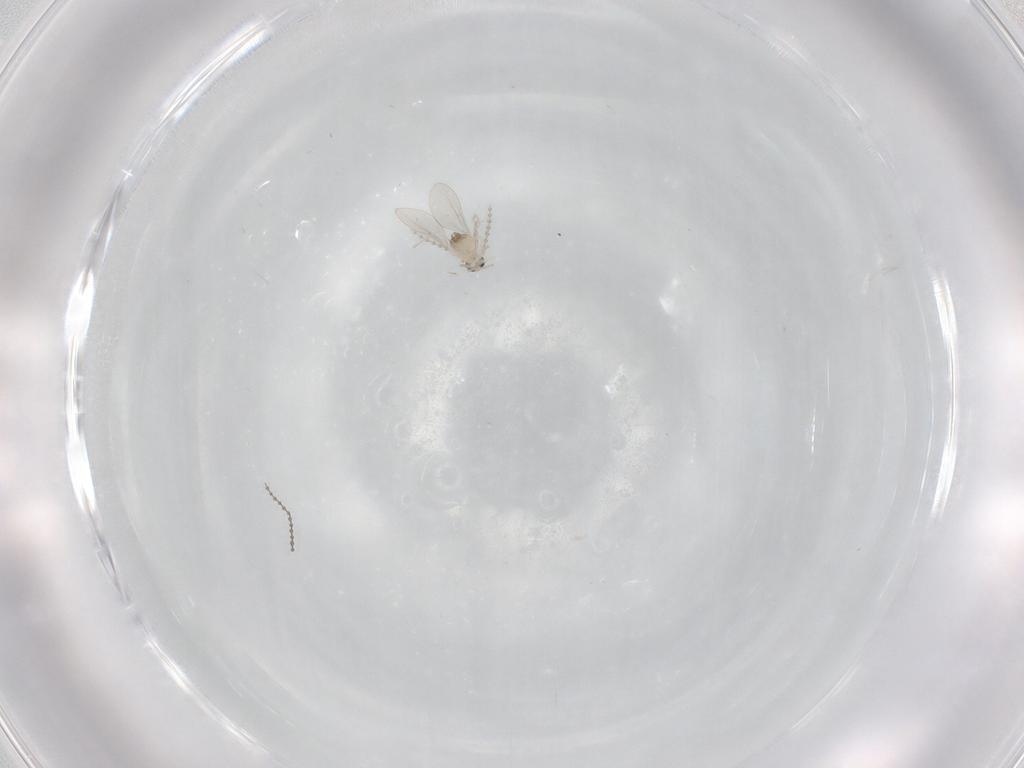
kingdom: Animalia
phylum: Arthropoda
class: Insecta
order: Diptera
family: Cecidomyiidae
